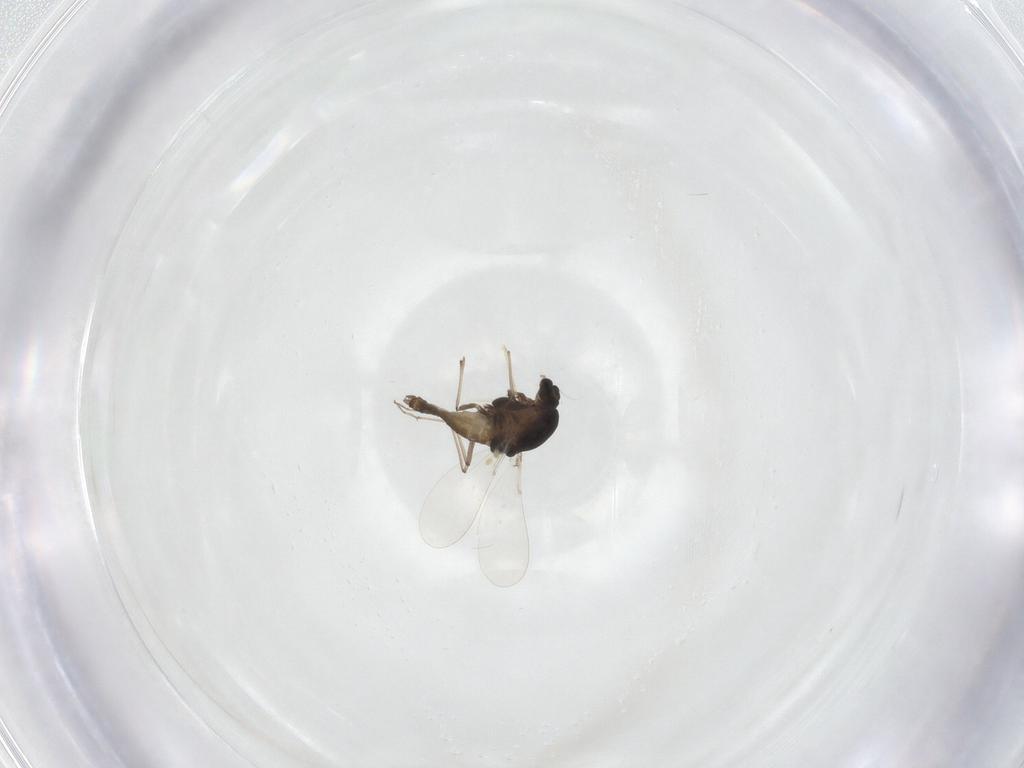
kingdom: Animalia
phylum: Arthropoda
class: Insecta
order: Diptera
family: Chironomidae
